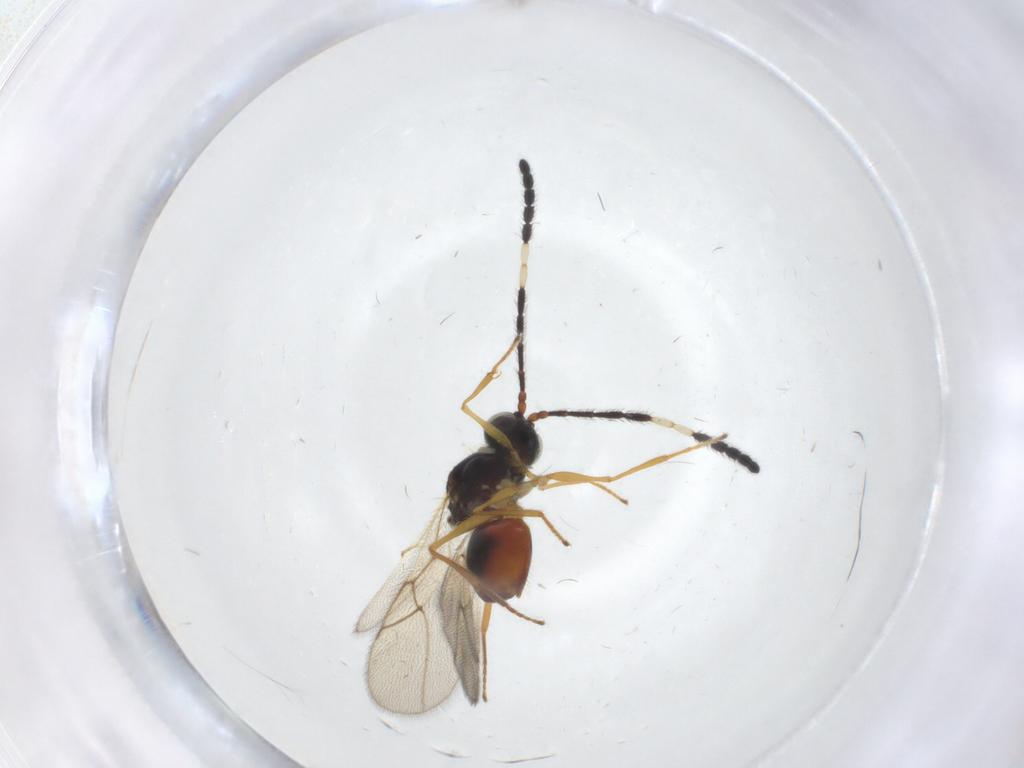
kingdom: Animalia
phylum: Arthropoda
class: Insecta
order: Hymenoptera
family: Figitidae
